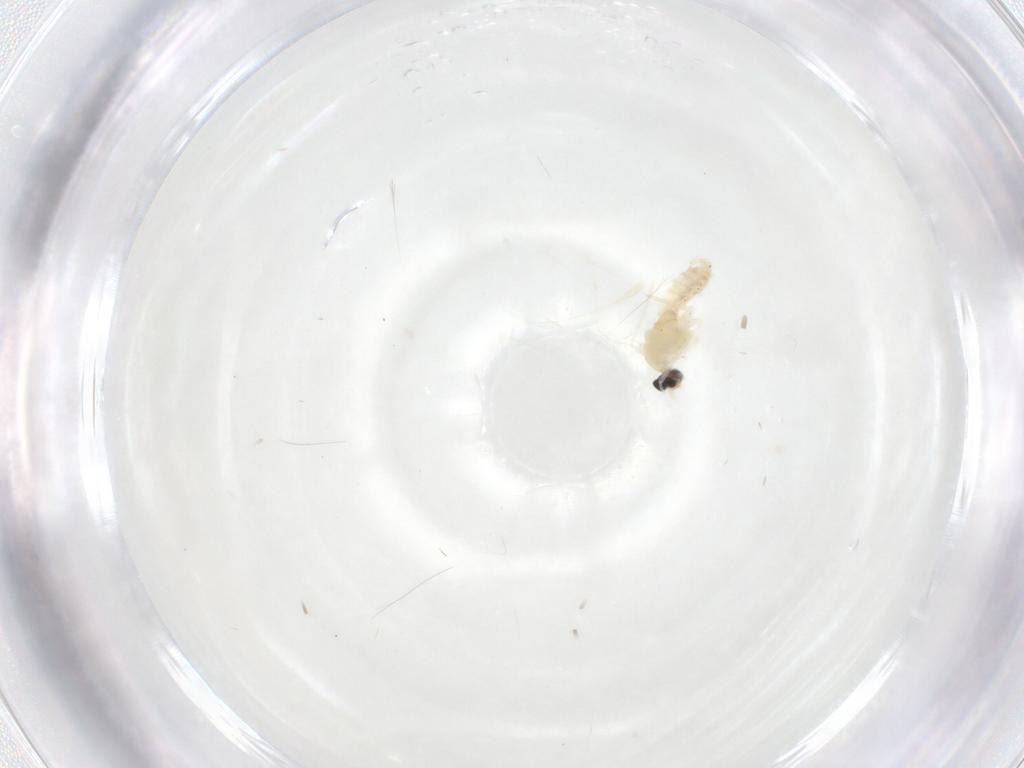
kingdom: Animalia
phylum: Arthropoda
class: Insecta
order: Diptera
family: Cecidomyiidae
